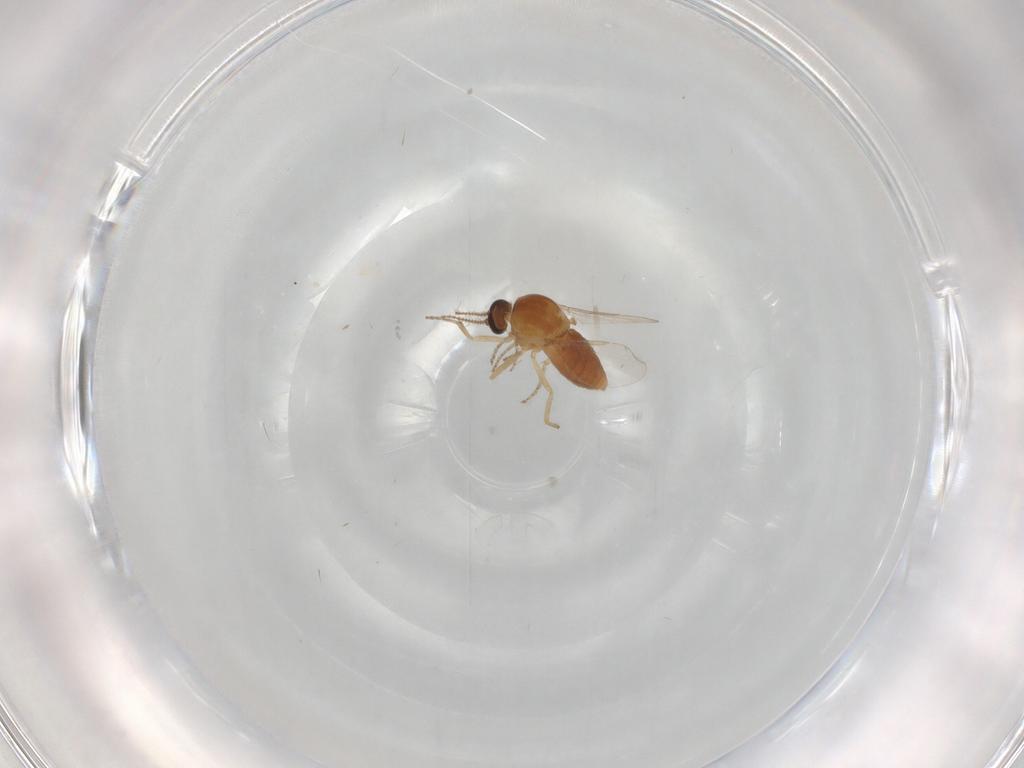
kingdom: Animalia
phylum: Arthropoda
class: Insecta
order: Diptera
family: Ceratopogonidae
